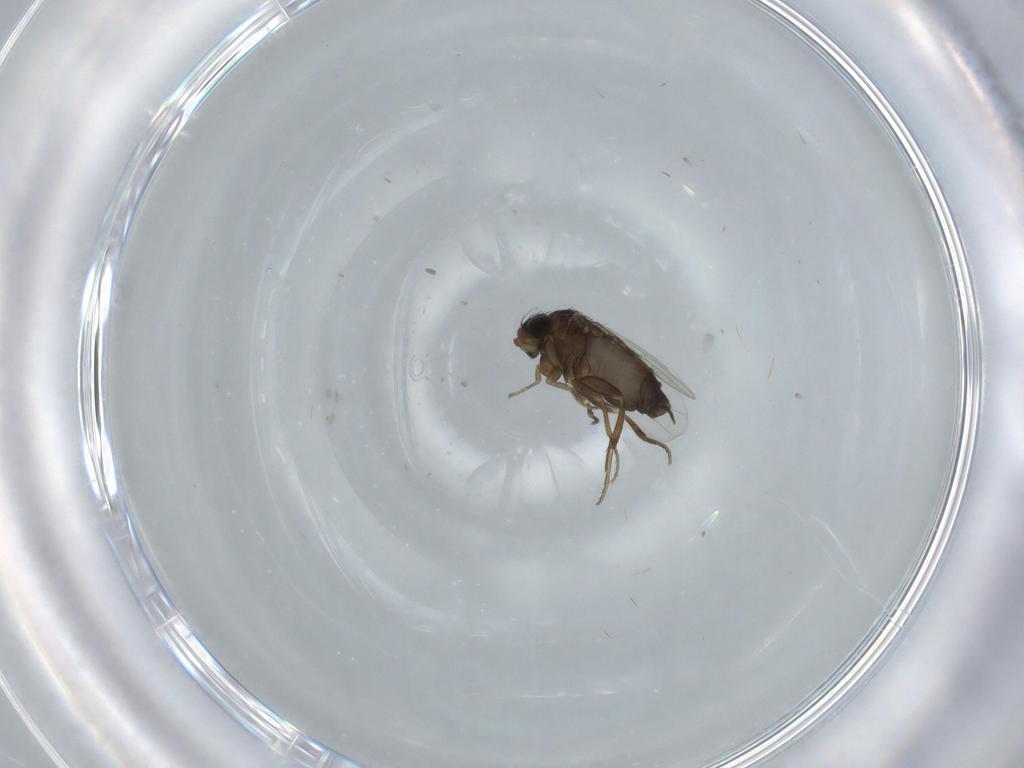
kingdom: Animalia
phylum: Arthropoda
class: Insecta
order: Diptera
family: Phoridae
